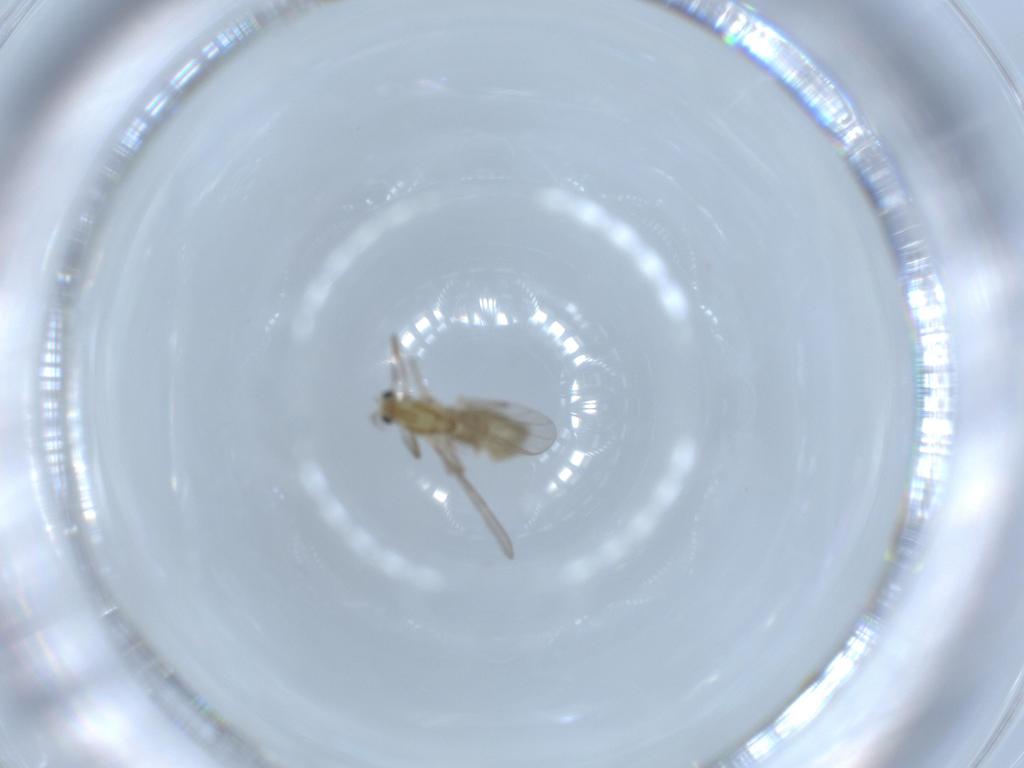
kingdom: Animalia
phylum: Arthropoda
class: Insecta
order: Diptera
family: Chironomidae
